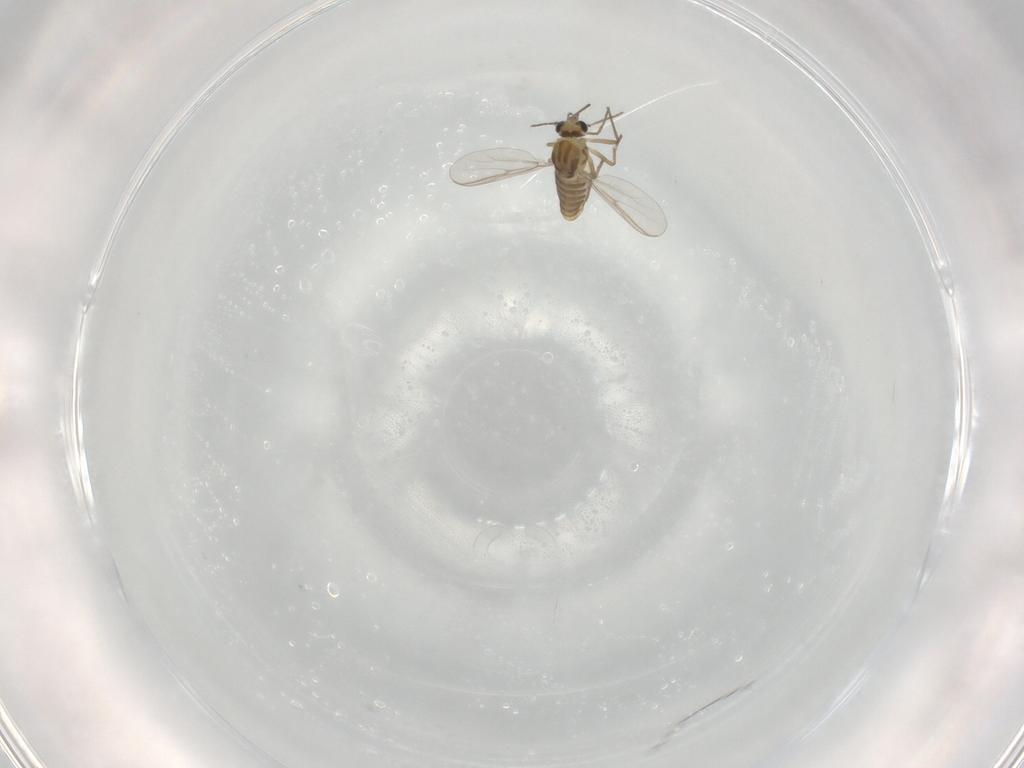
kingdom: Animalia
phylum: Arthropoda
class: Insecta
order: Diptera
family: Chironomidae
